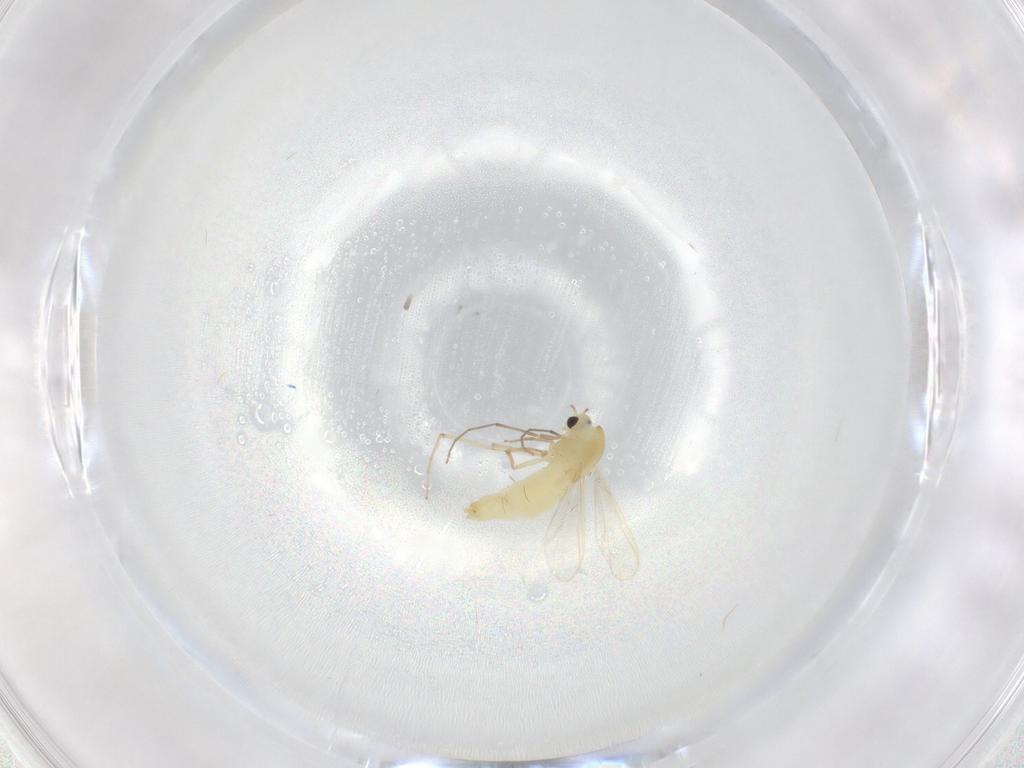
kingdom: Animalia
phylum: Arthropoda
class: Insecta
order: Diptera
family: Chironomidae
